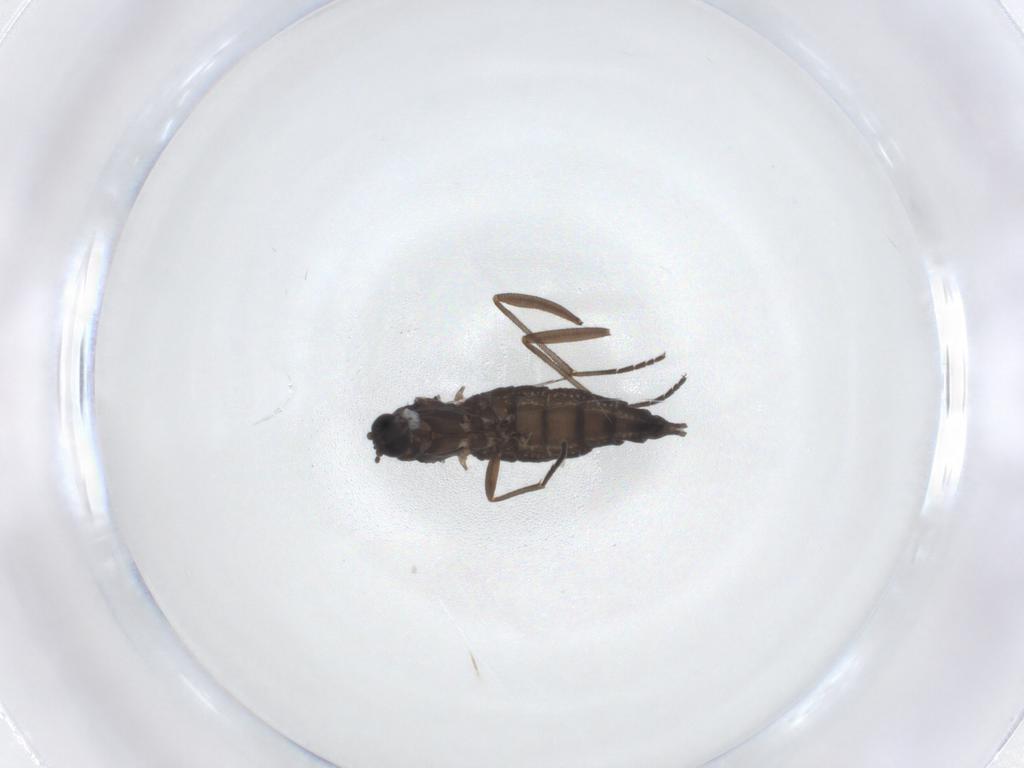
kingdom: Animalia
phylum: Arthropoda
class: Insecta
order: Diptera
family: Sciaridae
